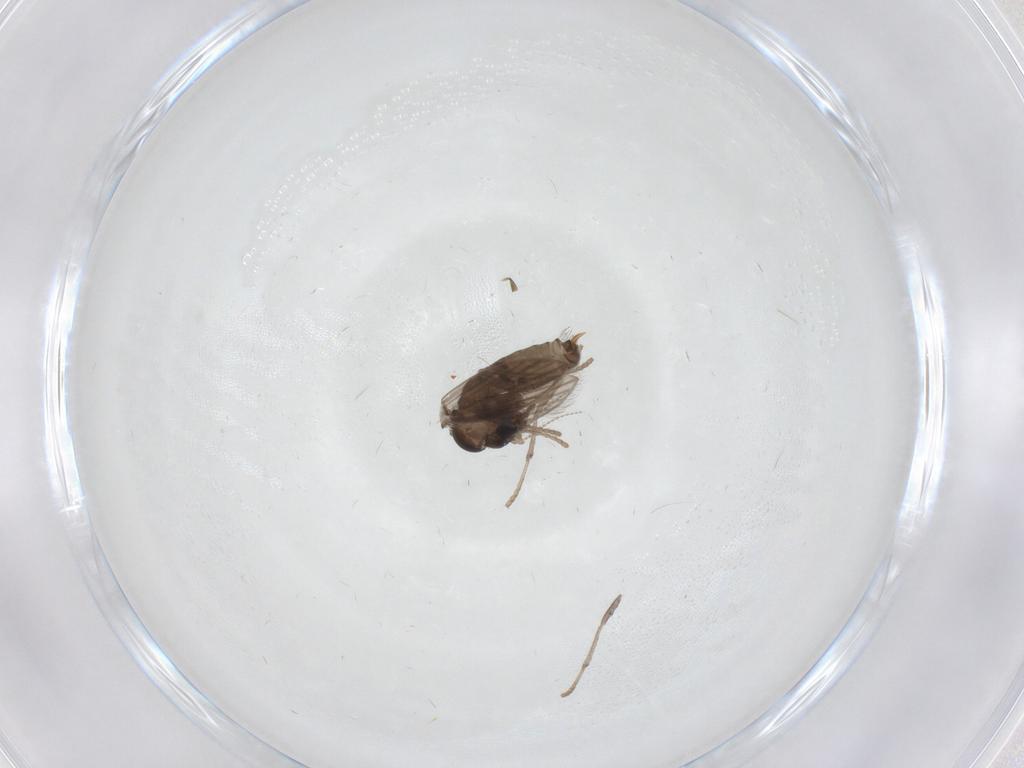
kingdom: Animalia
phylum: Arthropoda
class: Insecta
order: Diptera
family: Psychodidae
